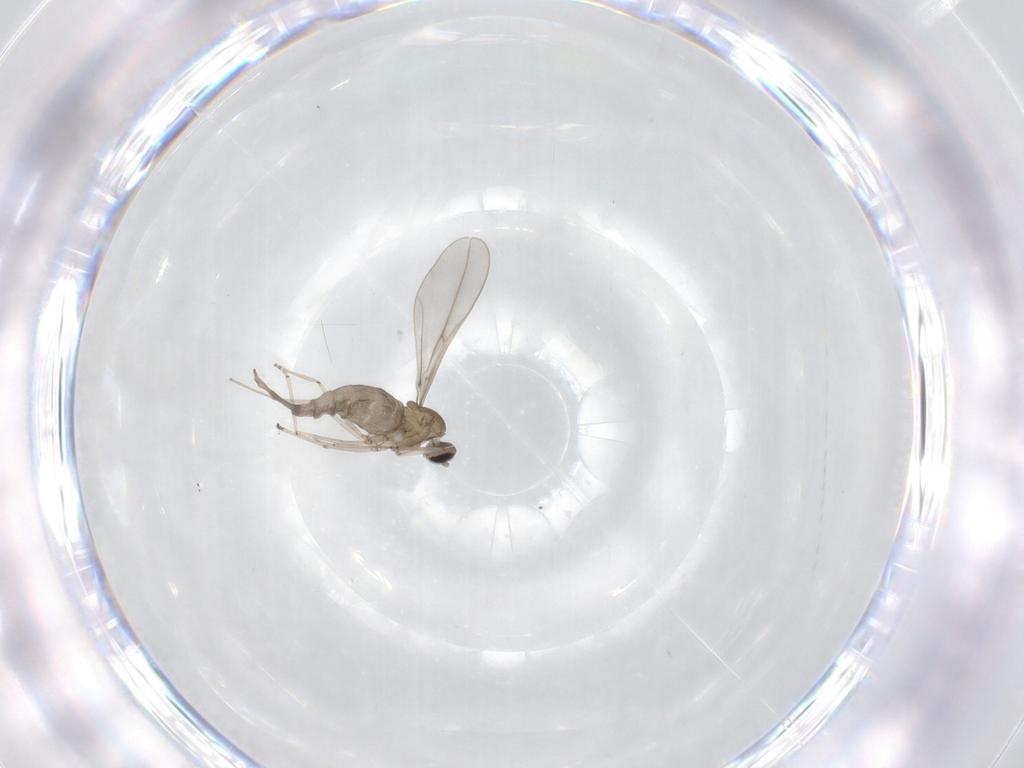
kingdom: Animalia
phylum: Arthropoda
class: Insecta
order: Diptera
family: Cecidomyiidae
